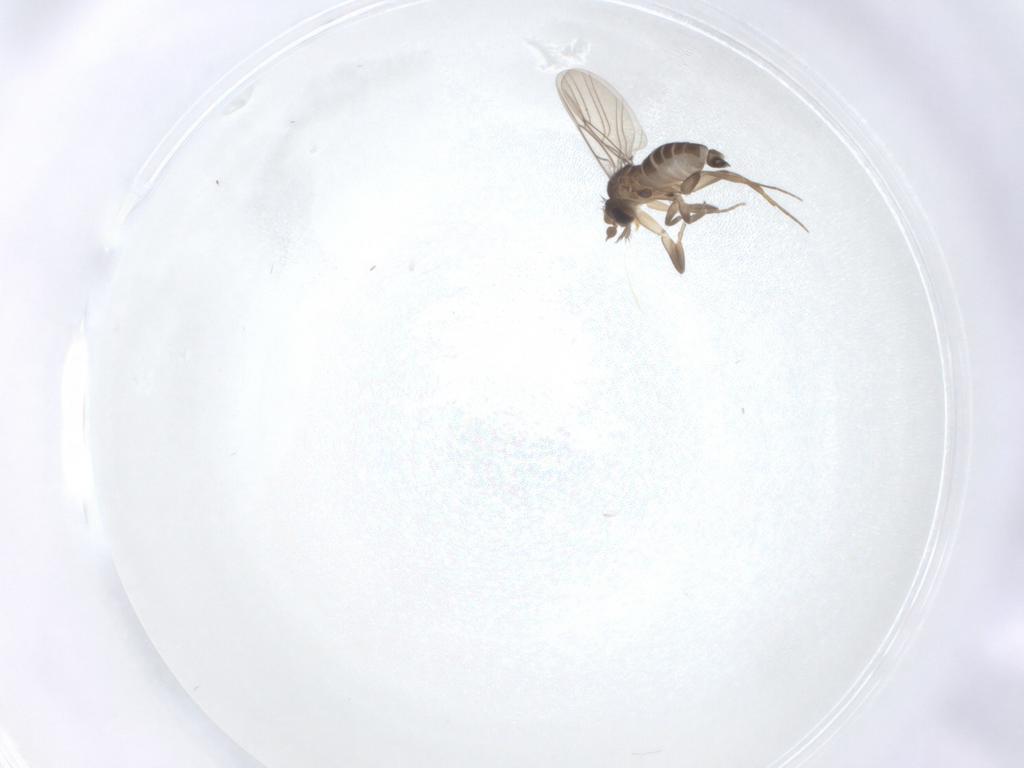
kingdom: Animalia
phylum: Arthropoda
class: Insecta
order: Diptera
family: Phoridae
